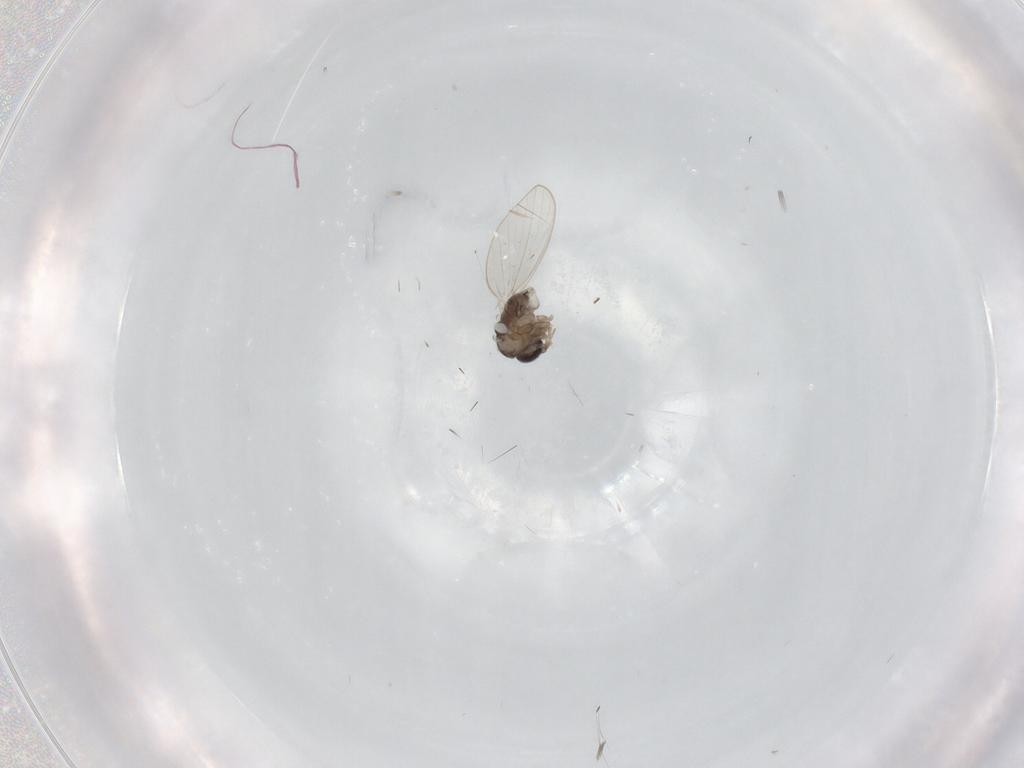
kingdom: Animalia
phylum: Arthropoda
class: Insecta
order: Diptera
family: Psychodidae
